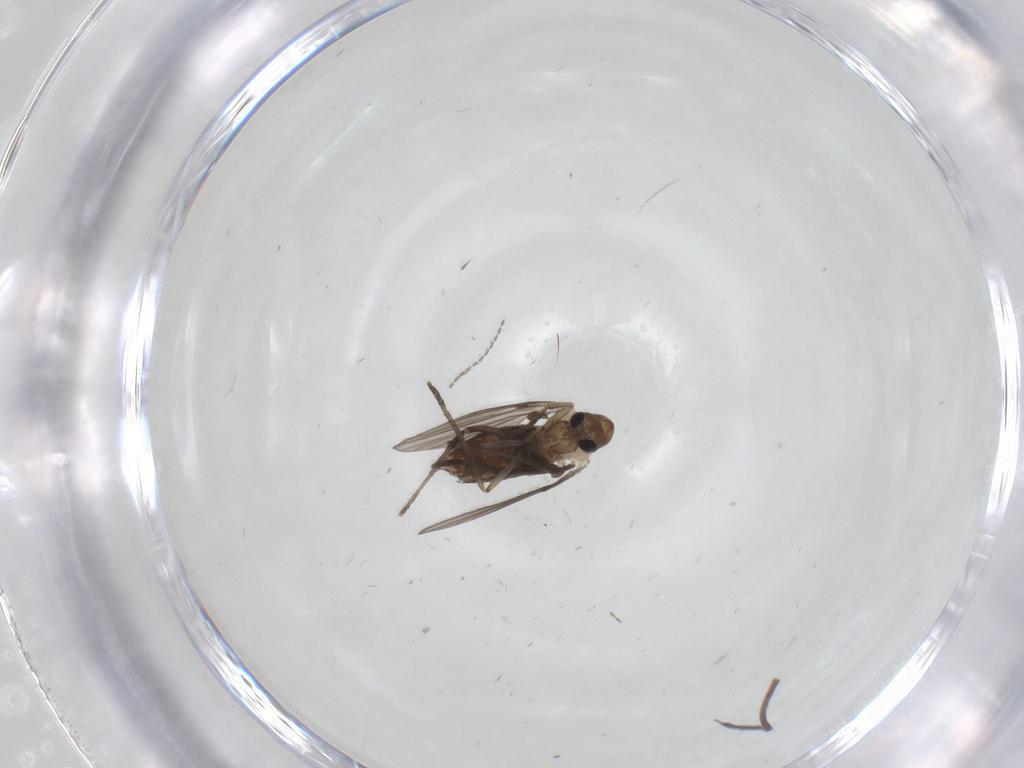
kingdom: Animalia
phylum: Arthropoda
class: Insecta
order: Diptera
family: Psychodidae
